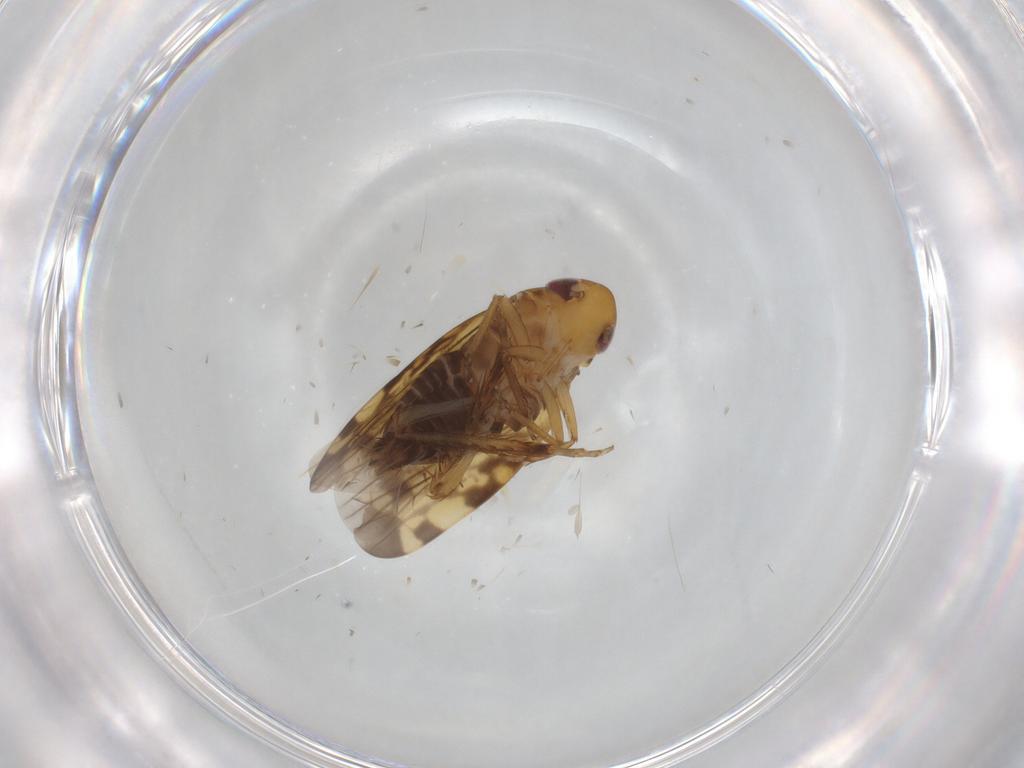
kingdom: Animalia
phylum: Arthropoda
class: Insecta
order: Hemiptera
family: Cicadellidae
